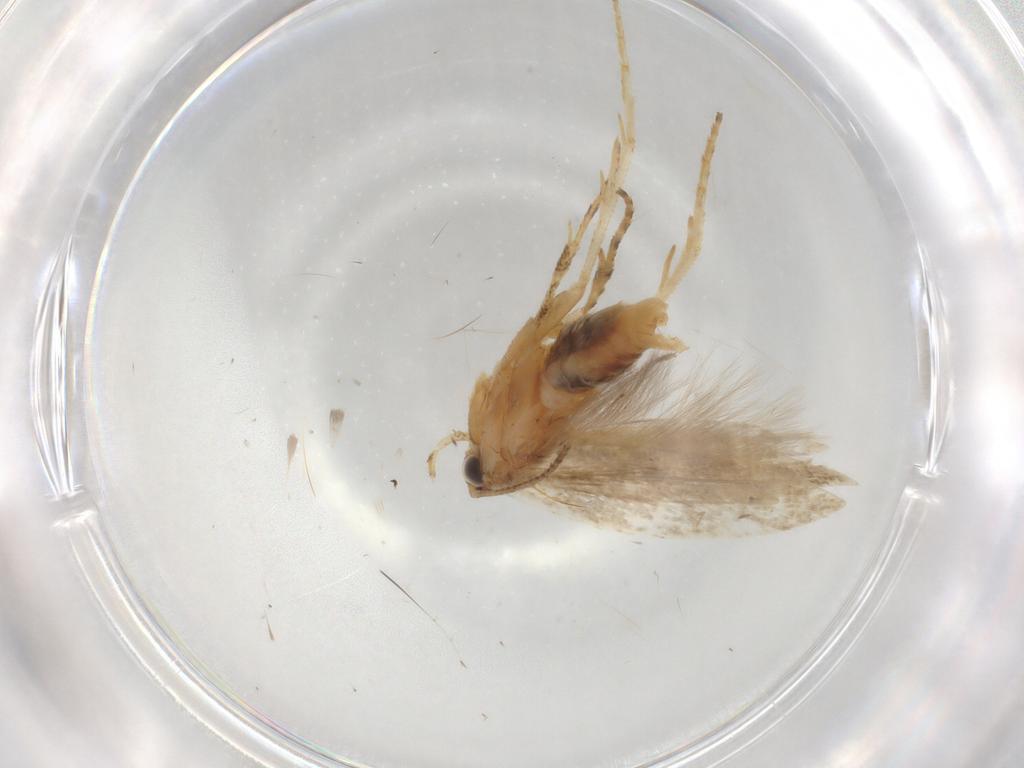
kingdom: Animalia
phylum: Arthropoda
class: Insecta
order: Lepidoptera
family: Gelechiidae
